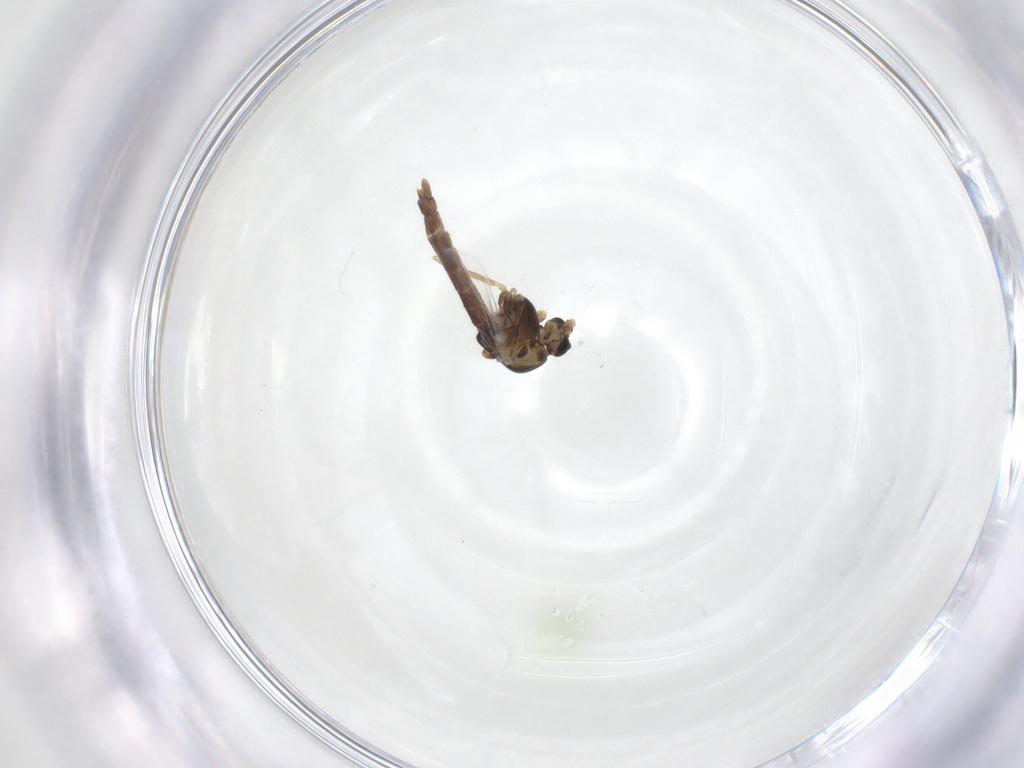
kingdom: Animalia
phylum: Arthropoda
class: Insecta
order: Diptera
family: Chironomidae
